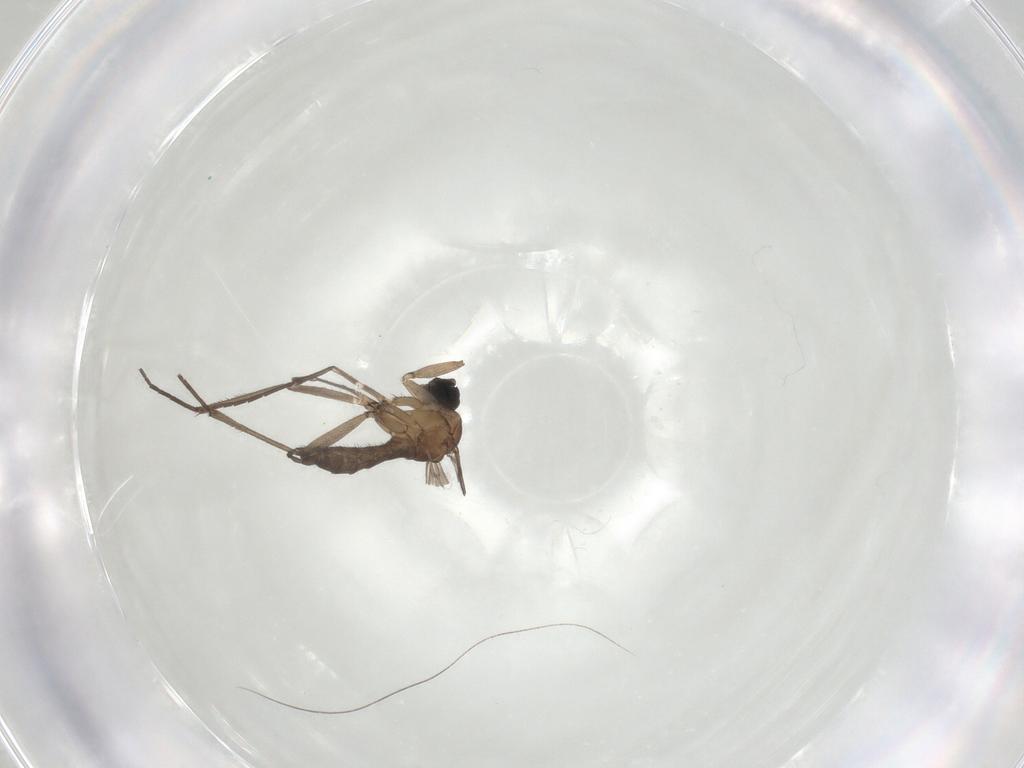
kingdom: Animalia
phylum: Arthropoda
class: Insecta
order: Diptera
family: Sciaridae
